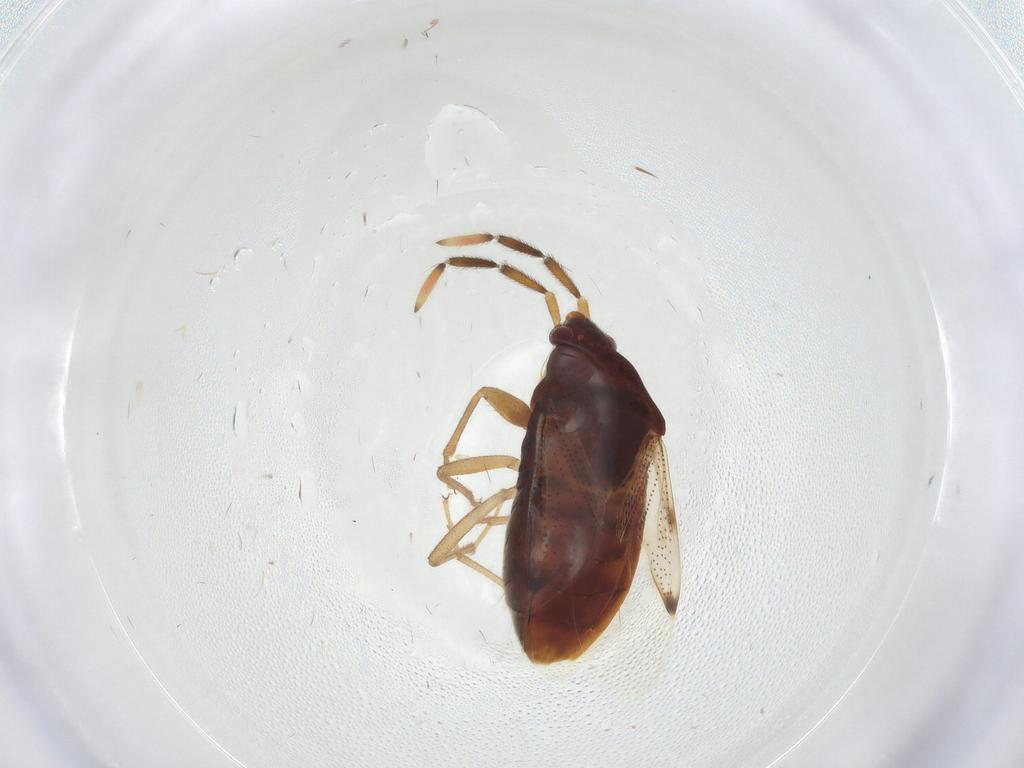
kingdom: Animalia
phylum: Arthropoda
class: Insecta
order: Hemiptera
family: Rhyparochromidae
